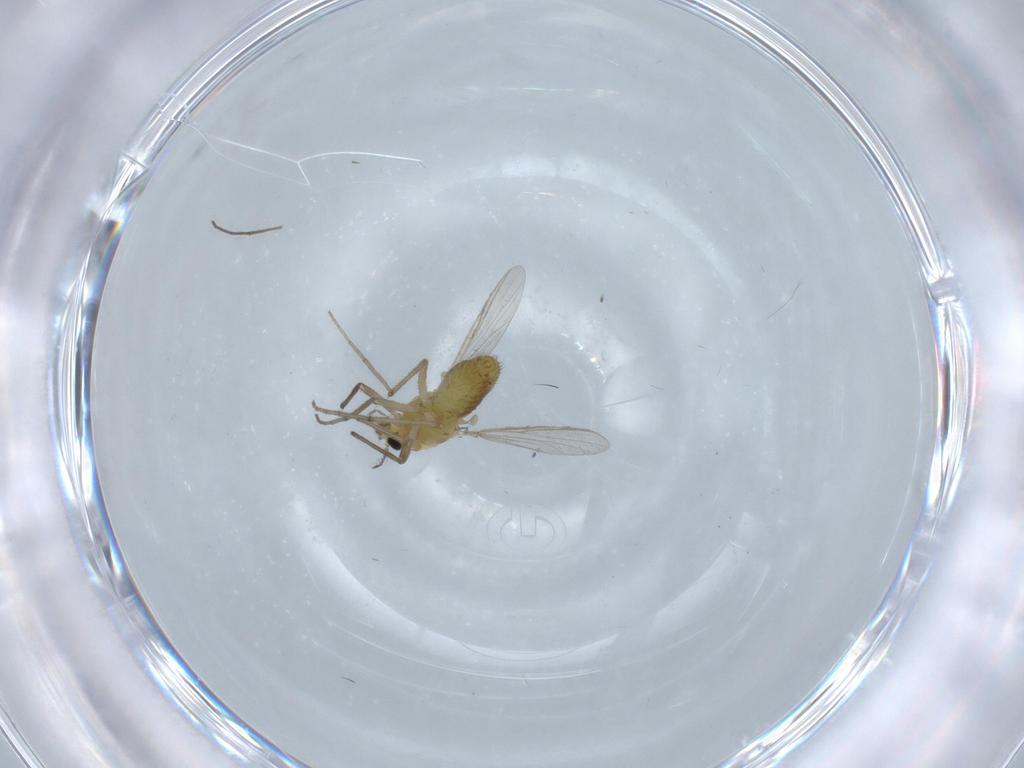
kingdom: Animalia
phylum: Arthropoda
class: Insecta
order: Diptera
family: Chironomidae
